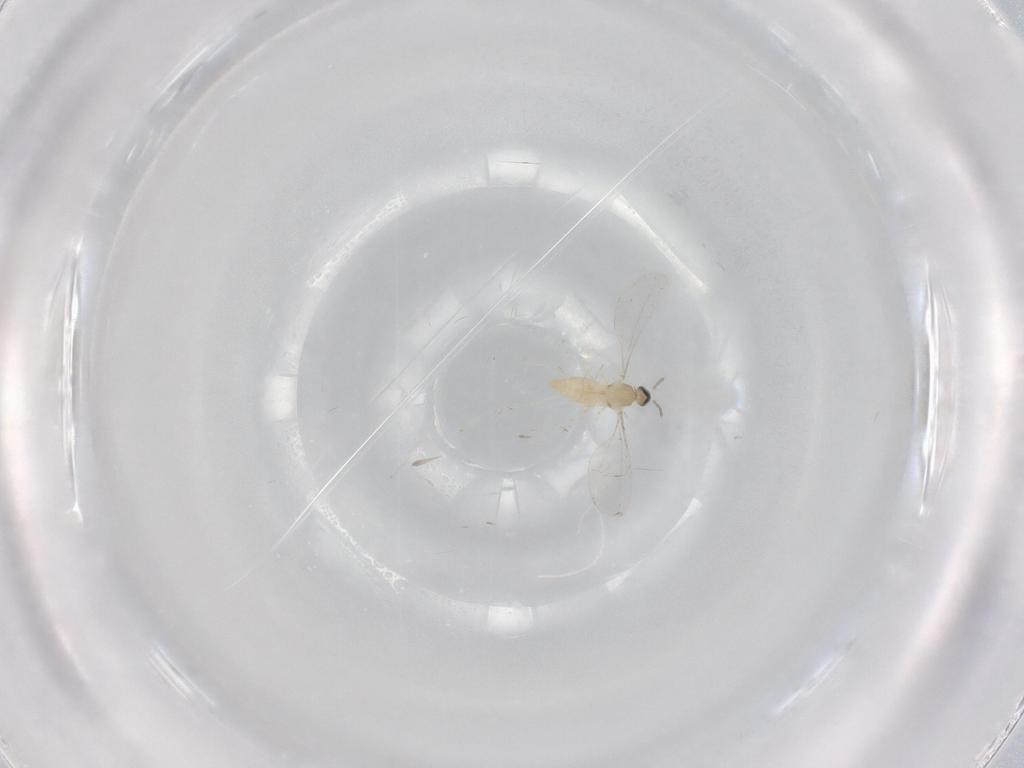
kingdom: Animalia
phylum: Arthropoda
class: Insecta
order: Diptera
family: Cecidomyiidae
